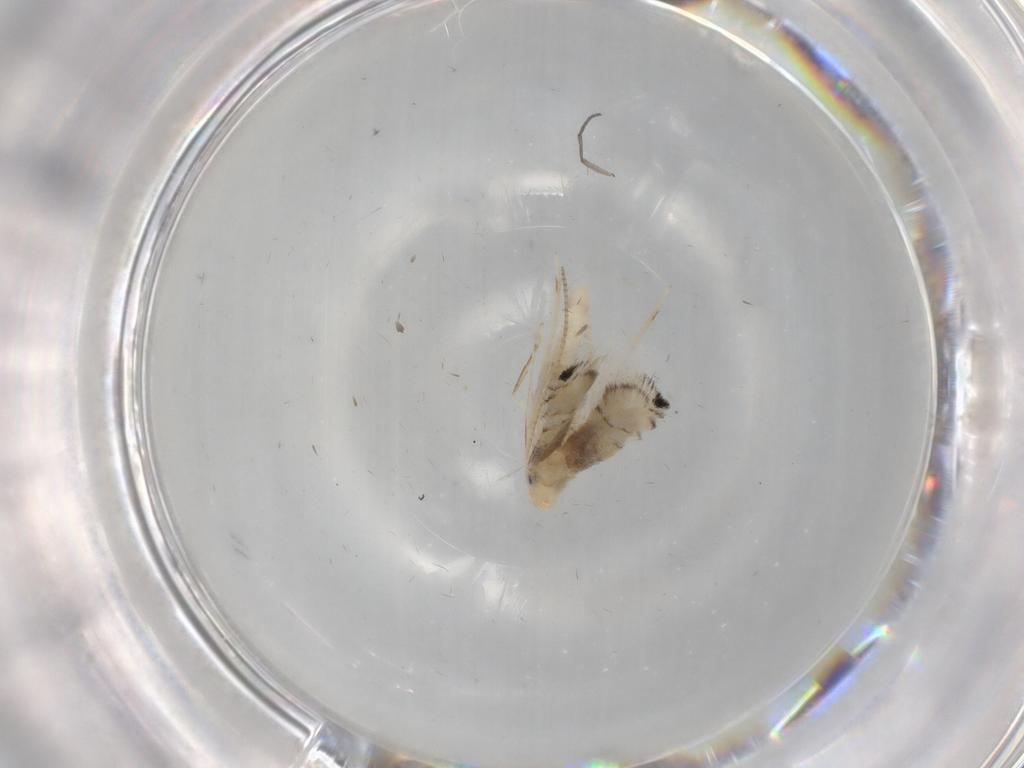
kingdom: Animalia
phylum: Arthropoda
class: Insecta
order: Lepidoptera
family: Gracillariidae
